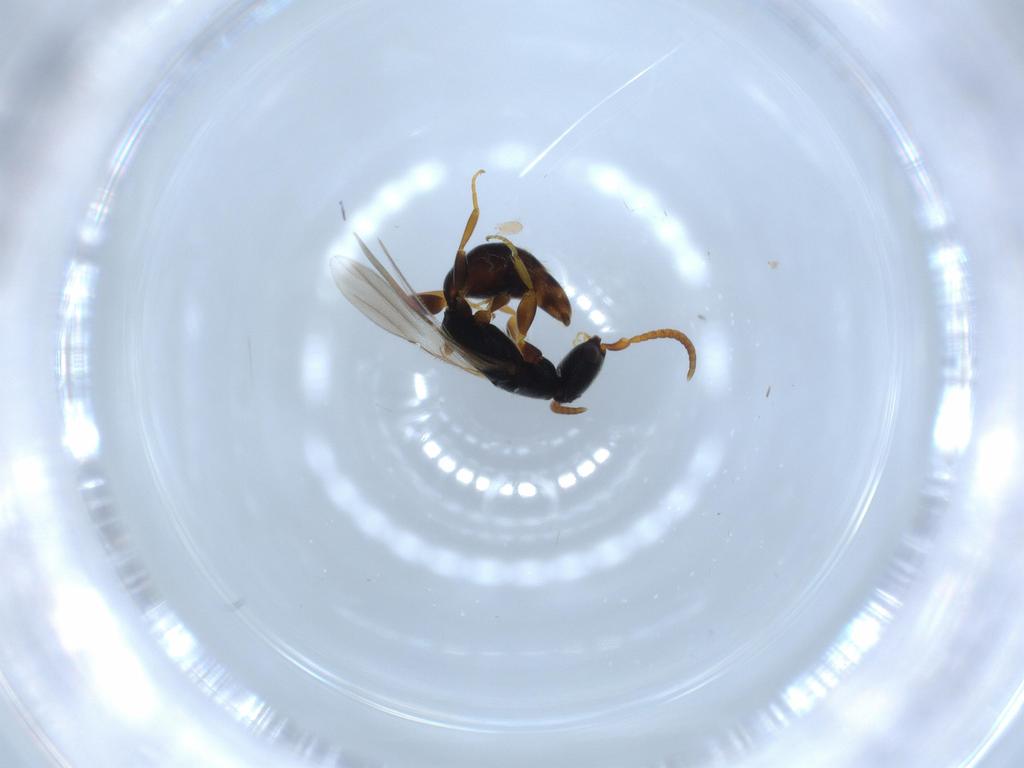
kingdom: Animalia
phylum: Arthropoda
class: Insecta
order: Hymenoptera
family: Bethylidae
